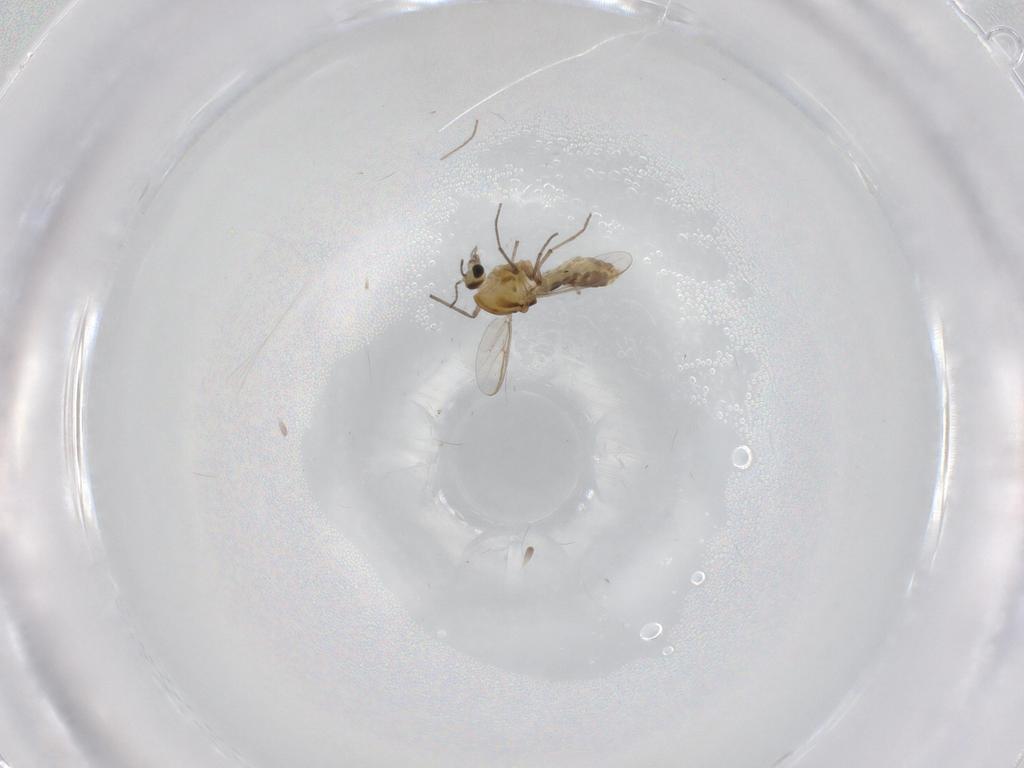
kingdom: Animalia
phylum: Arthropoda
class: Insecta
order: Diptera
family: Chironomidae
